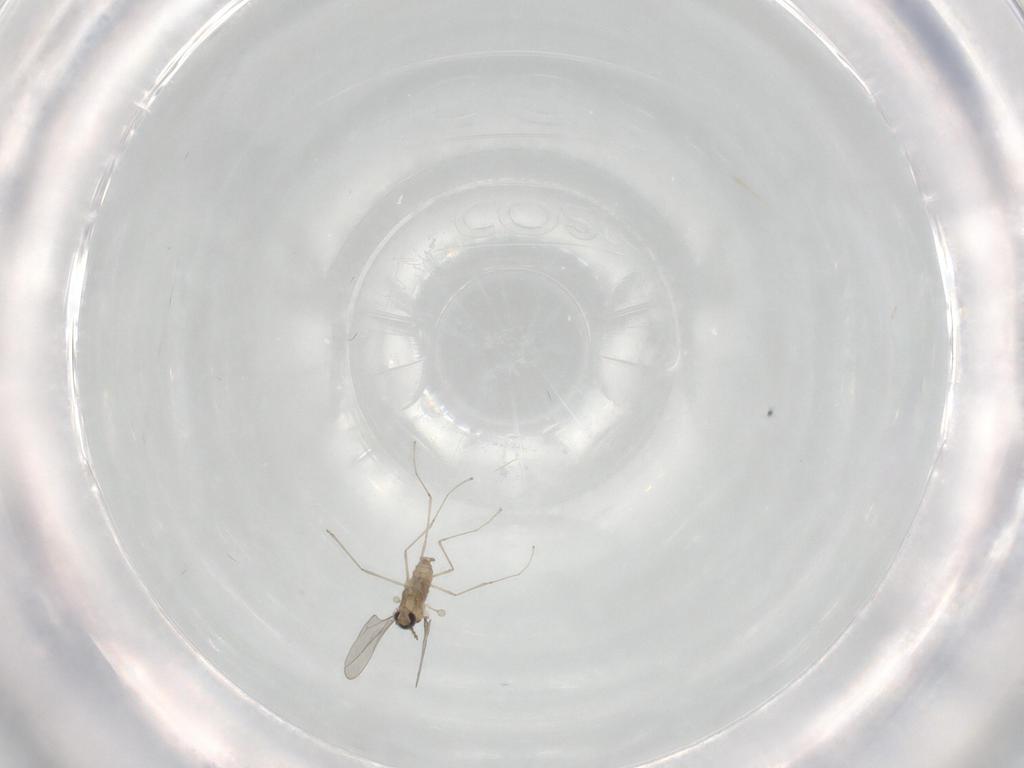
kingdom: Animalia
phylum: Arthropoda
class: Insecta
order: Diptera
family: Cecidomyiidae
